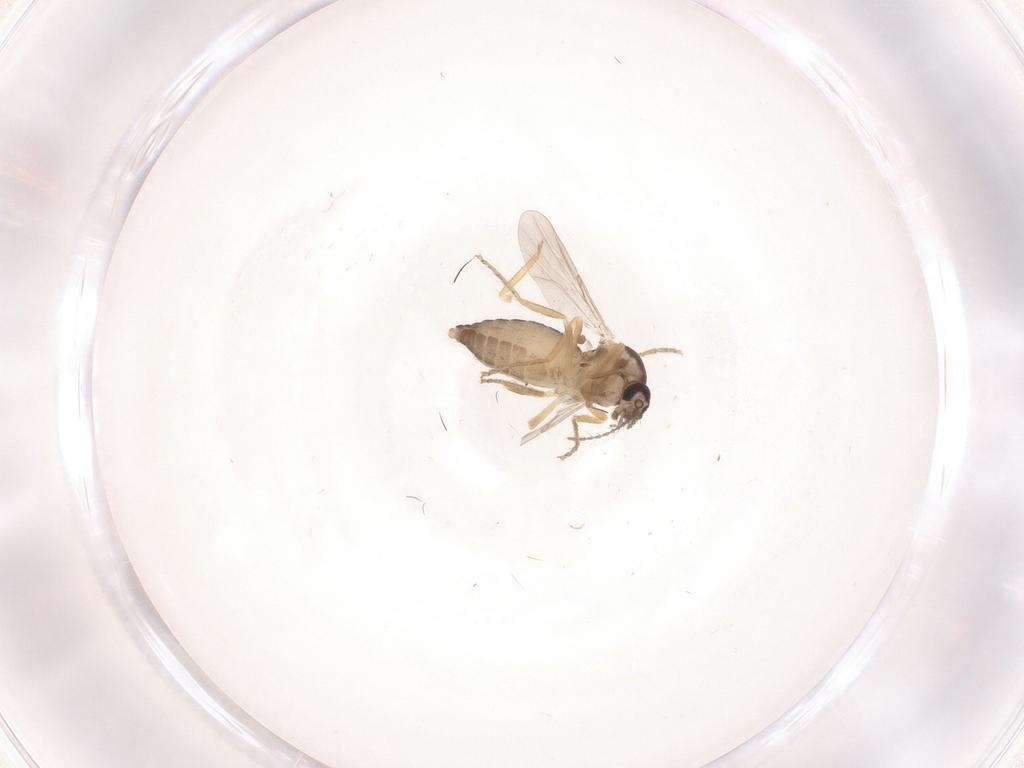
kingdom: Animalia
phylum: Arthropoda
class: Insecta
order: Diptera
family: Ceratopogonidae
